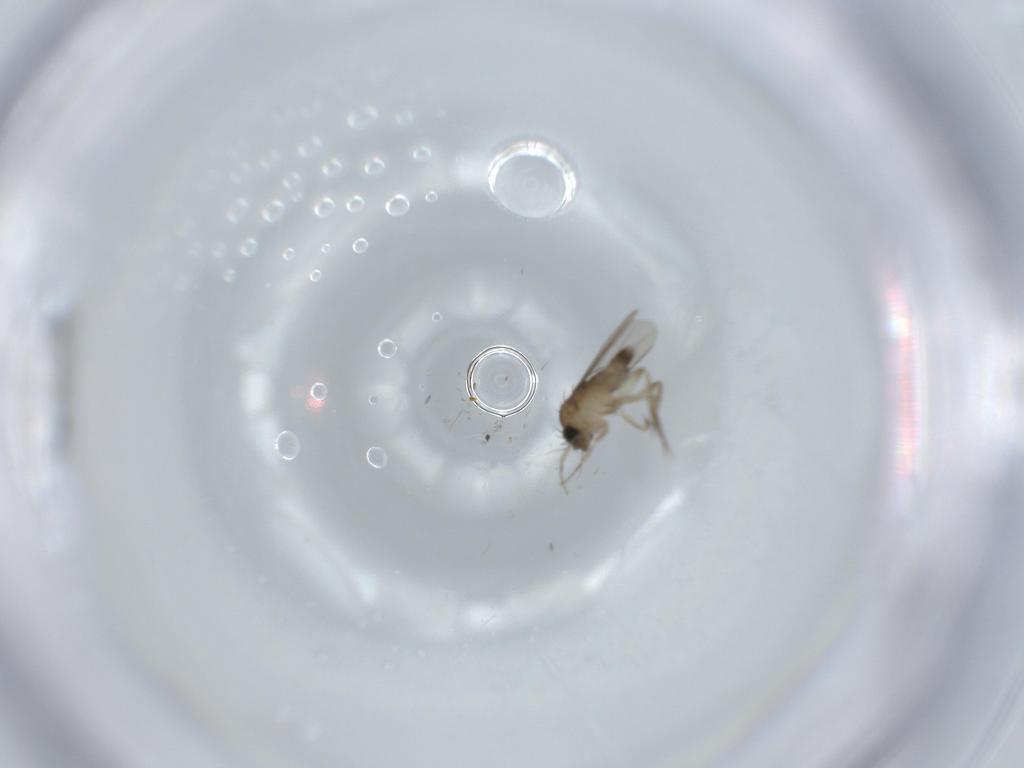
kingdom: Animalia
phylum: Arthropoda
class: Insecta
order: Diptera
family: Phoridae
